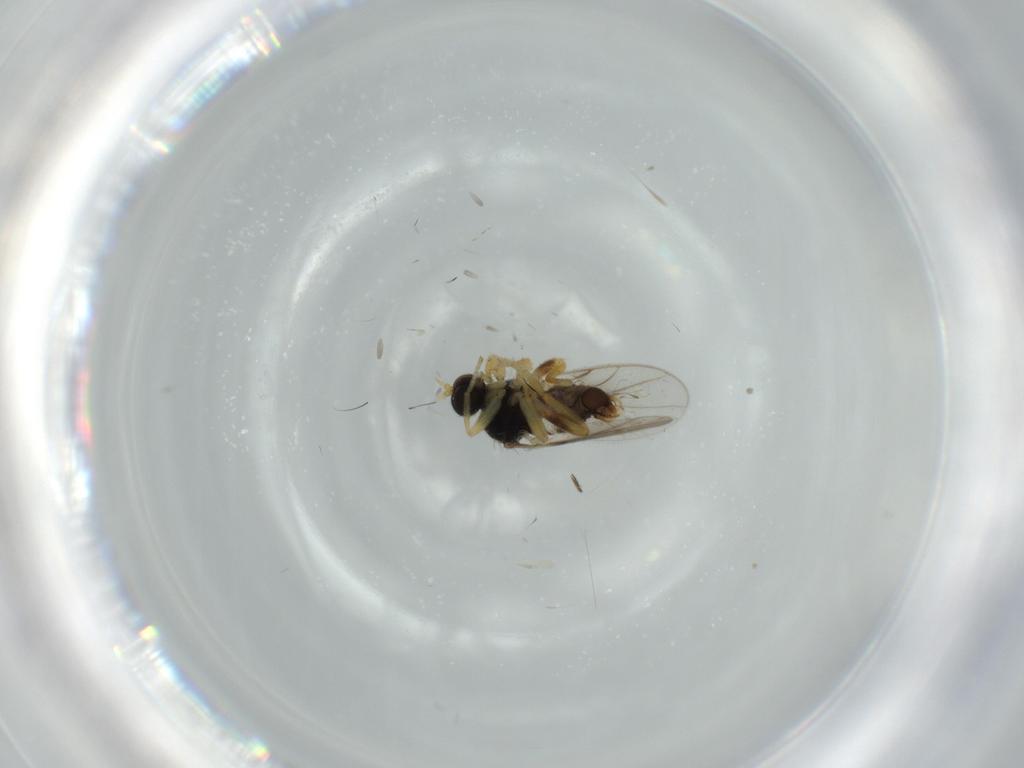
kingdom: Animalia
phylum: Arthropoda
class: Insecta
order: Diptera
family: Hybotidae
